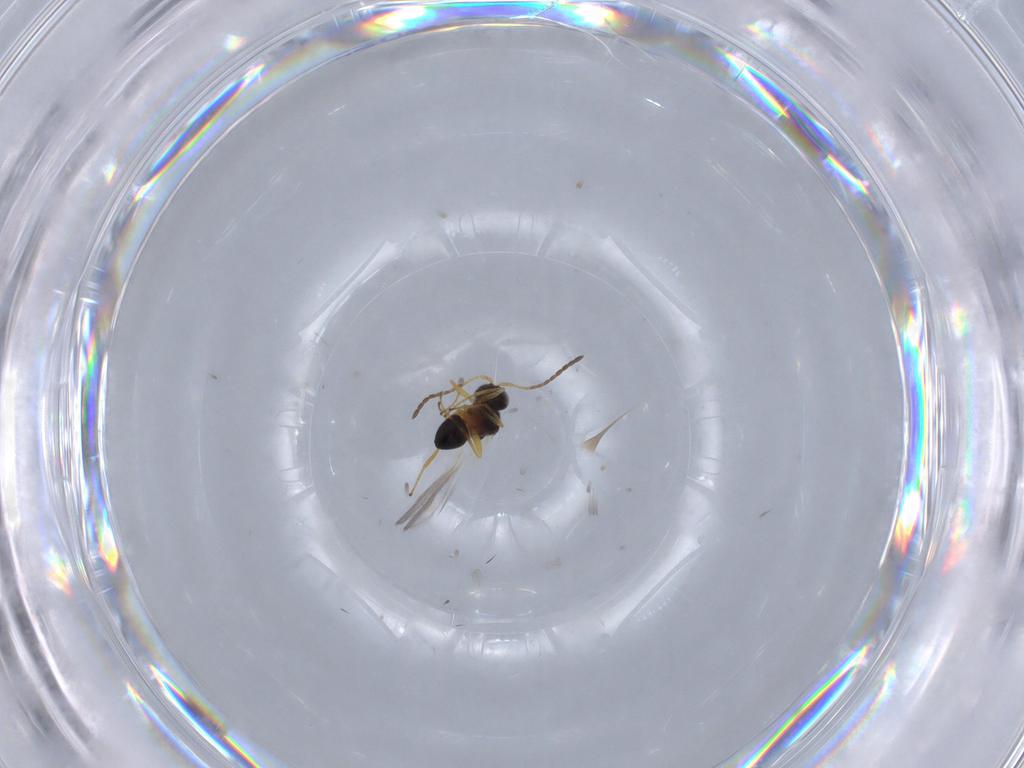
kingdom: Animalia
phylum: Arthropoda
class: Insecta
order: Hymenoptera
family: Figitidae
